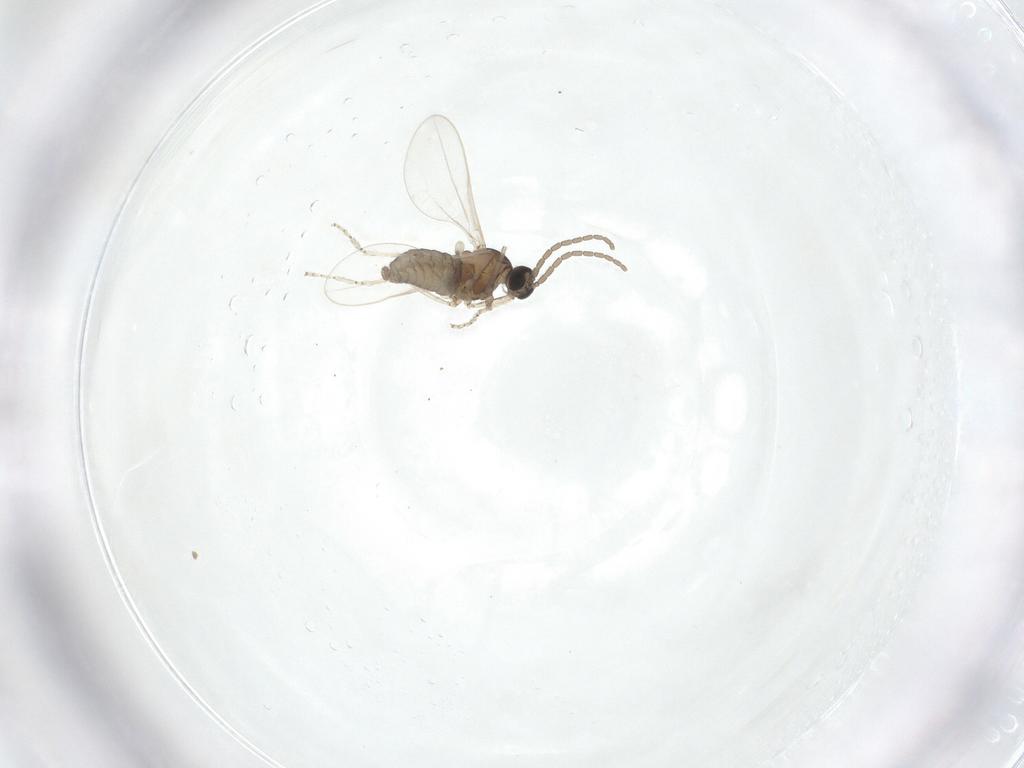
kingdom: Animalia
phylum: Arthropoda
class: Insecta
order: Diptera
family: Cecidomyiidae
